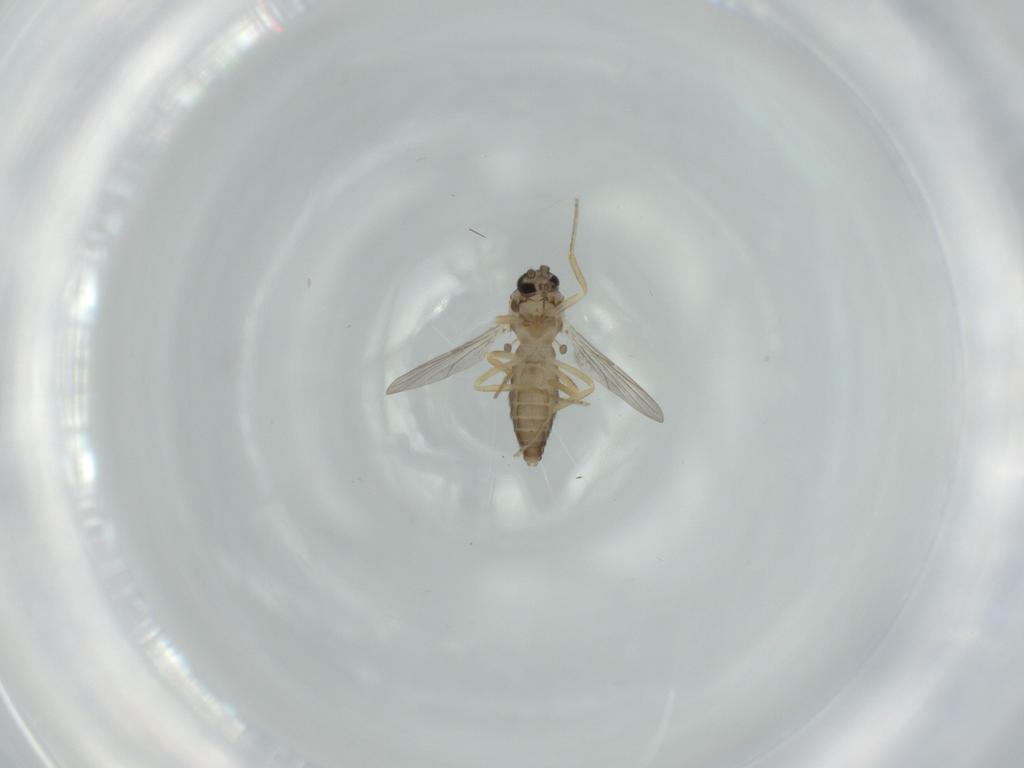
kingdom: Animalia
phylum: Arthropoda
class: Insecta
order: Diptera
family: Ceratopogonidae
